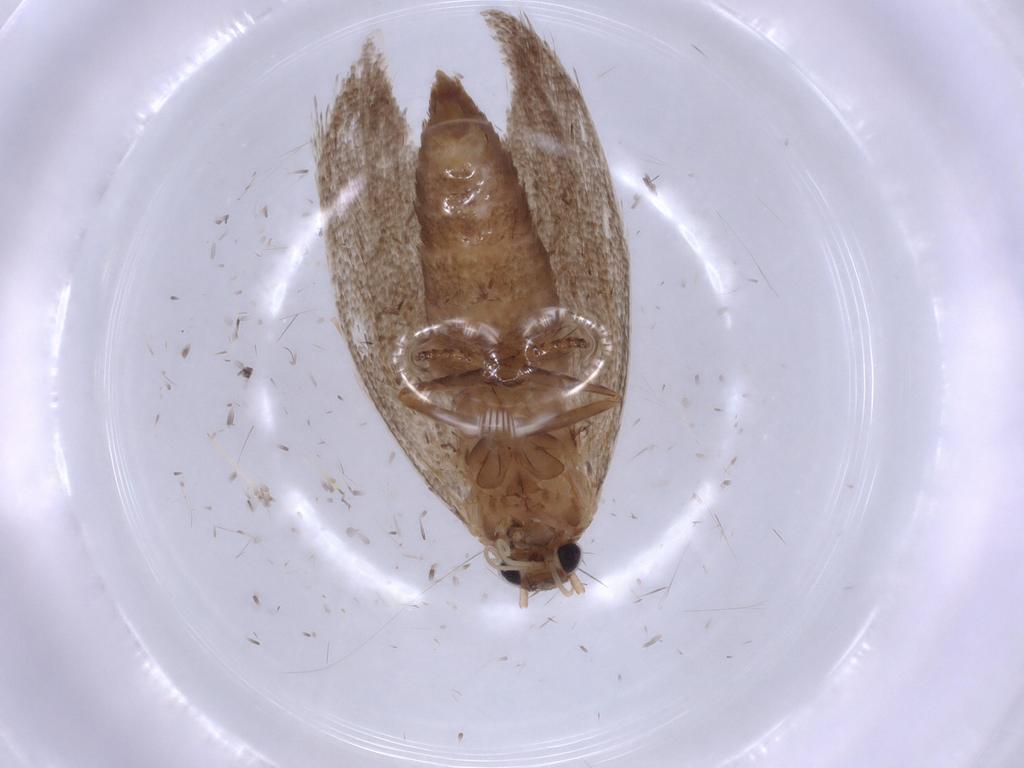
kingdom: Animalia
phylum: Arthropoda
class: Insecta
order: Lepidoptera
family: Oecophoridae
